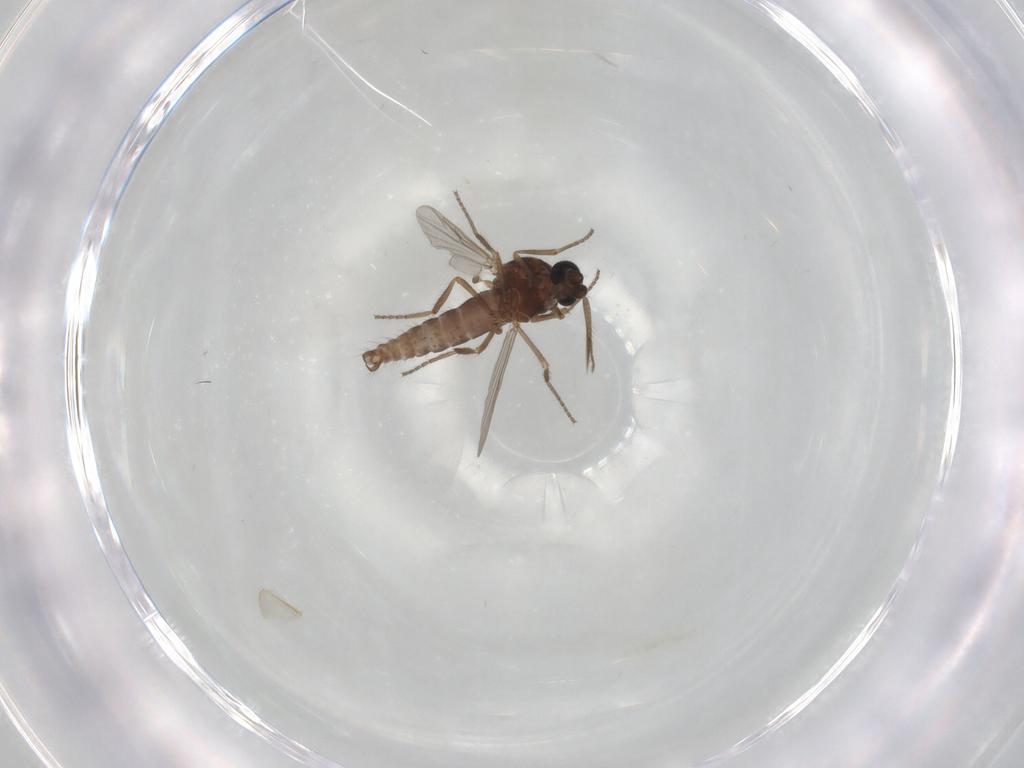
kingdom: Animalia
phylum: Arthropoda
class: Insecta
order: Diptera
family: Ceratopogonidae
